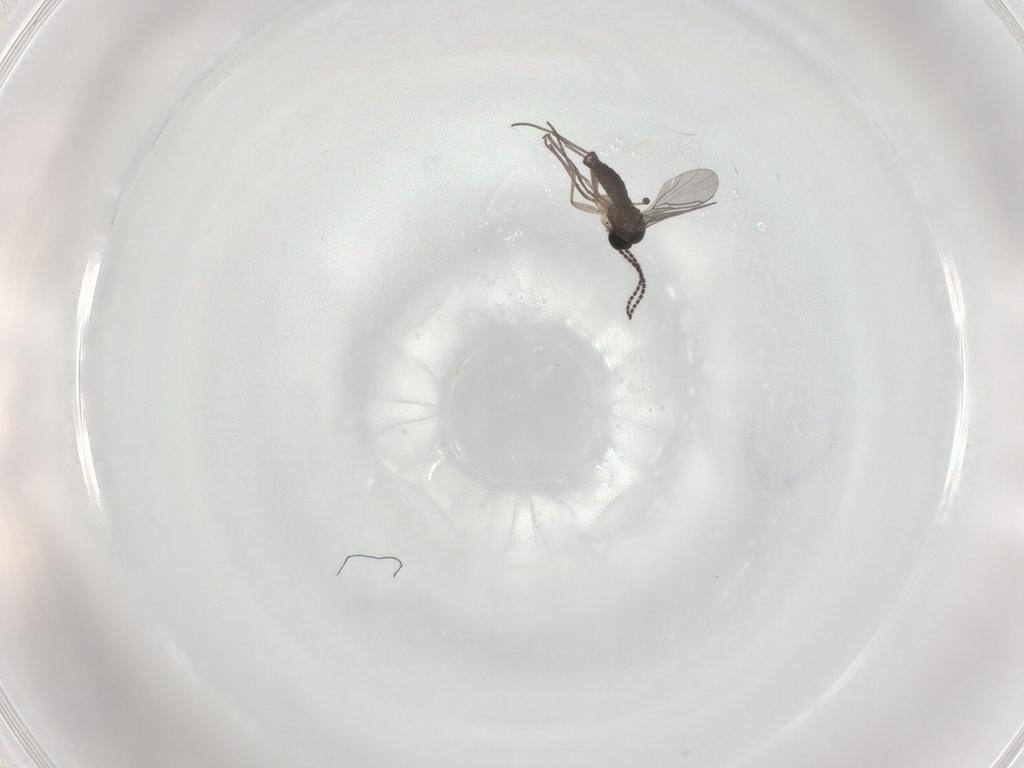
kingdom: Animalia
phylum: Arthropoda
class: Insecta
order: Diptera
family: Sciaridae
